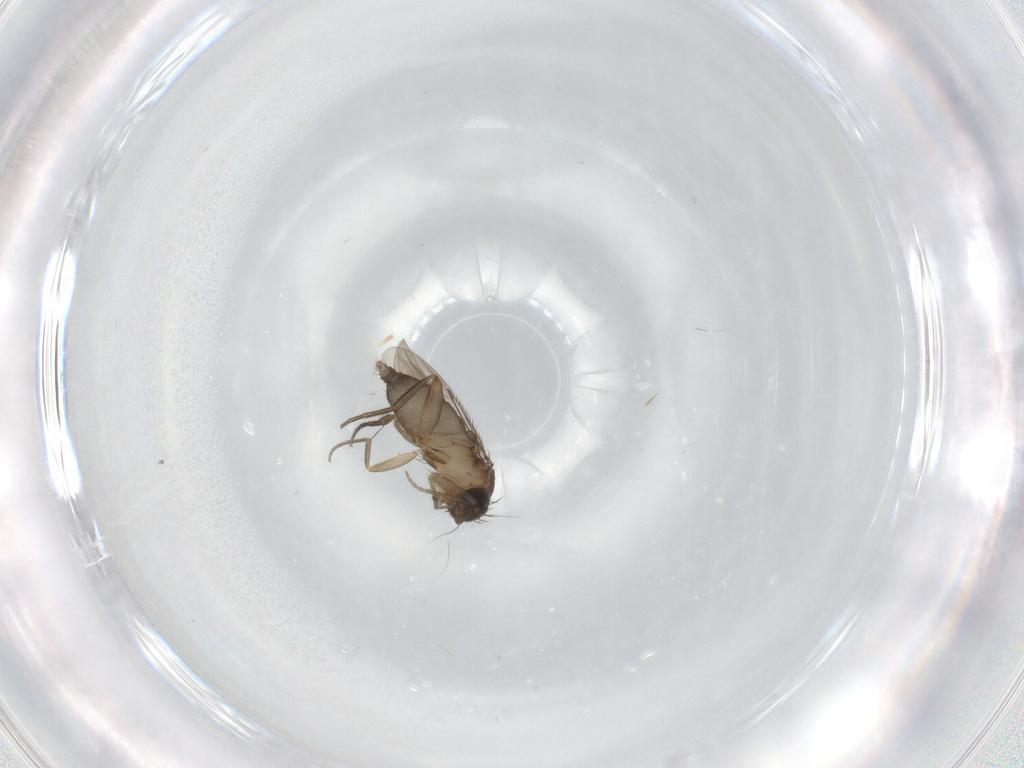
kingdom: Animalia
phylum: Arthropoda
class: Insecta
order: Diptera
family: Phoridae
